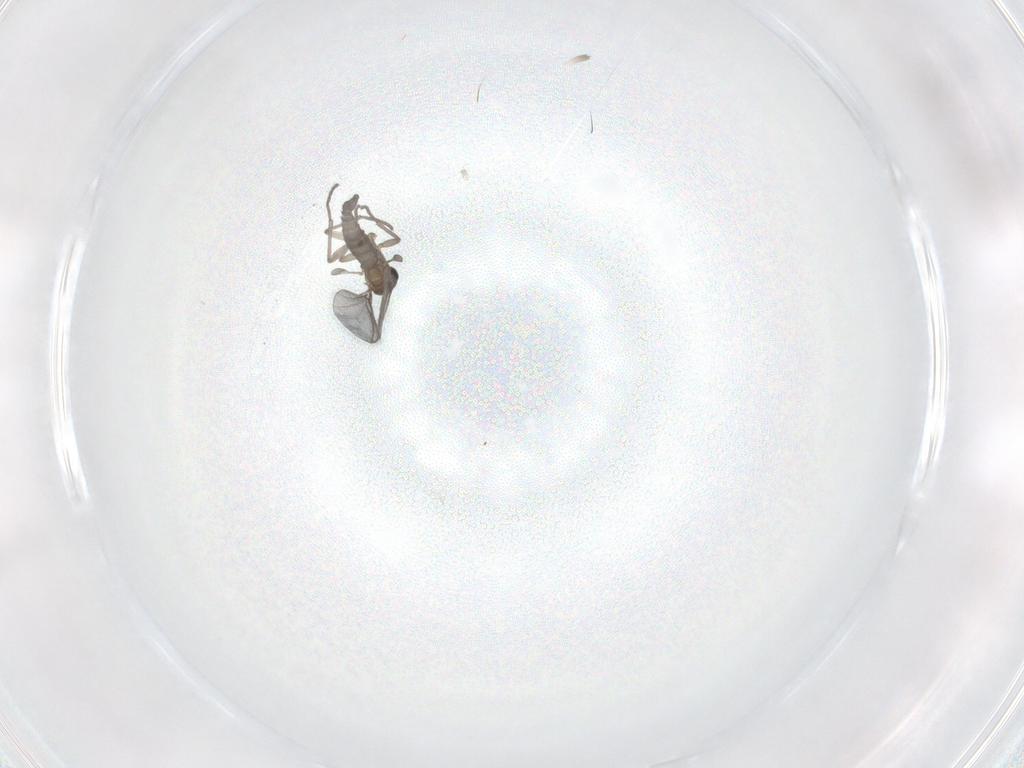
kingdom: Animalia
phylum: Arthropoda
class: Insecta
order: Diptera
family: Sciaridae
